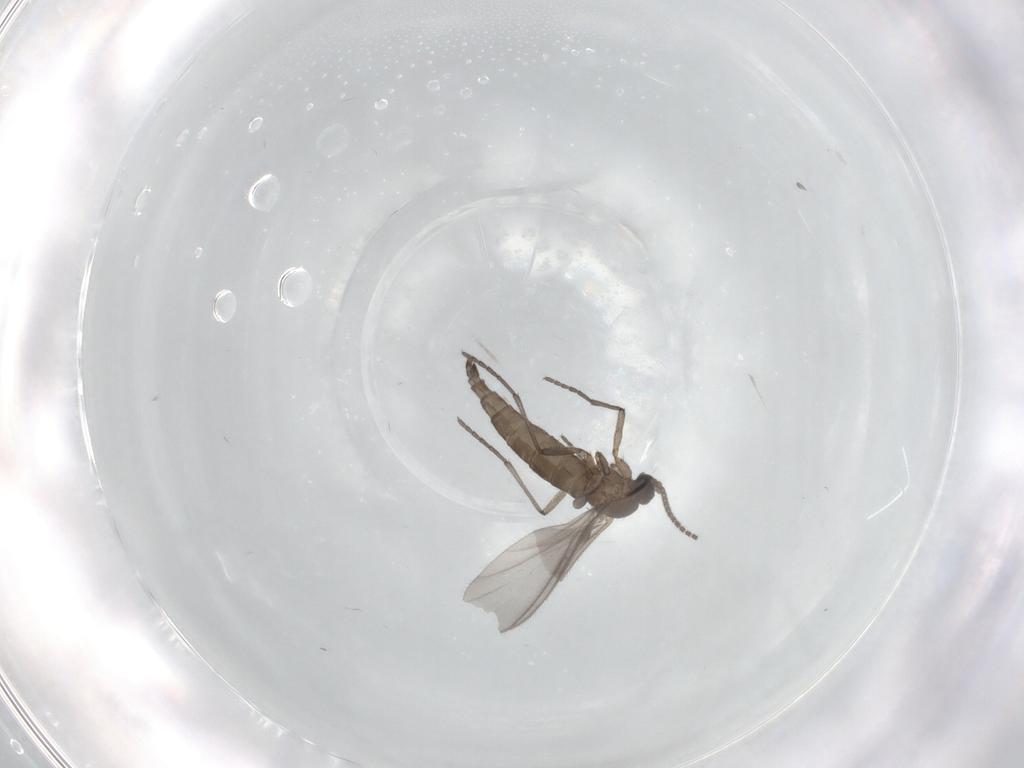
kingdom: Animalia
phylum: Arthropoda
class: Insecta
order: Diptera
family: Sciaridae
